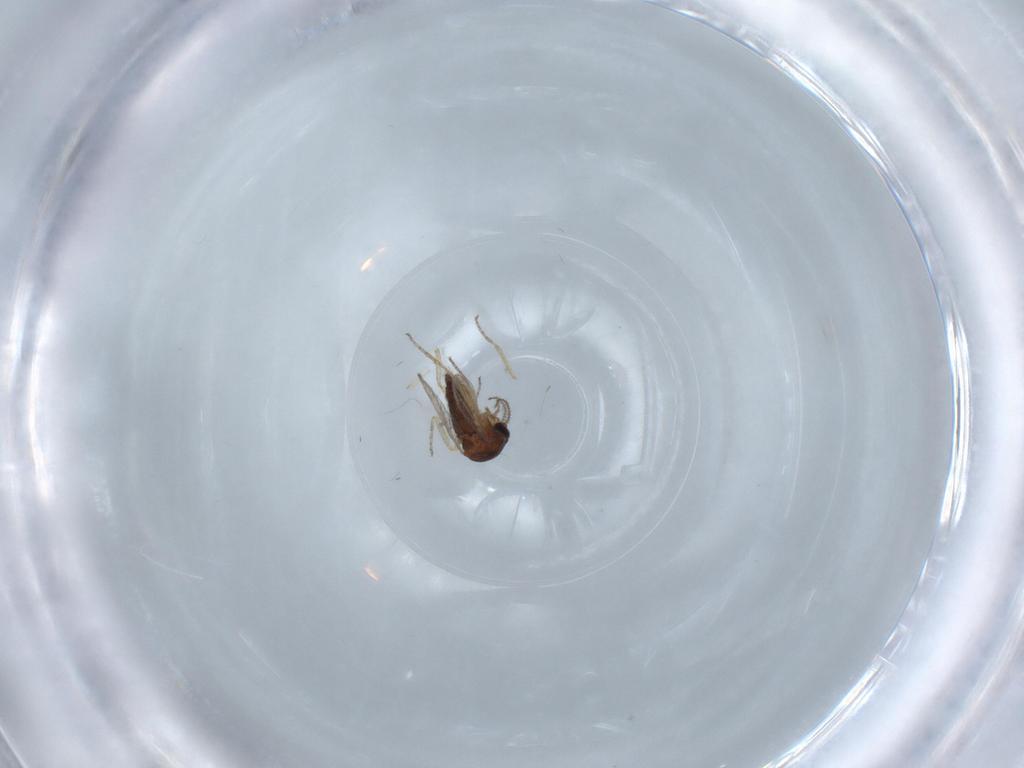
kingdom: Animalia
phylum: Arthropoda
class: Insecta
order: Diptera
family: Ceratopogonidae
